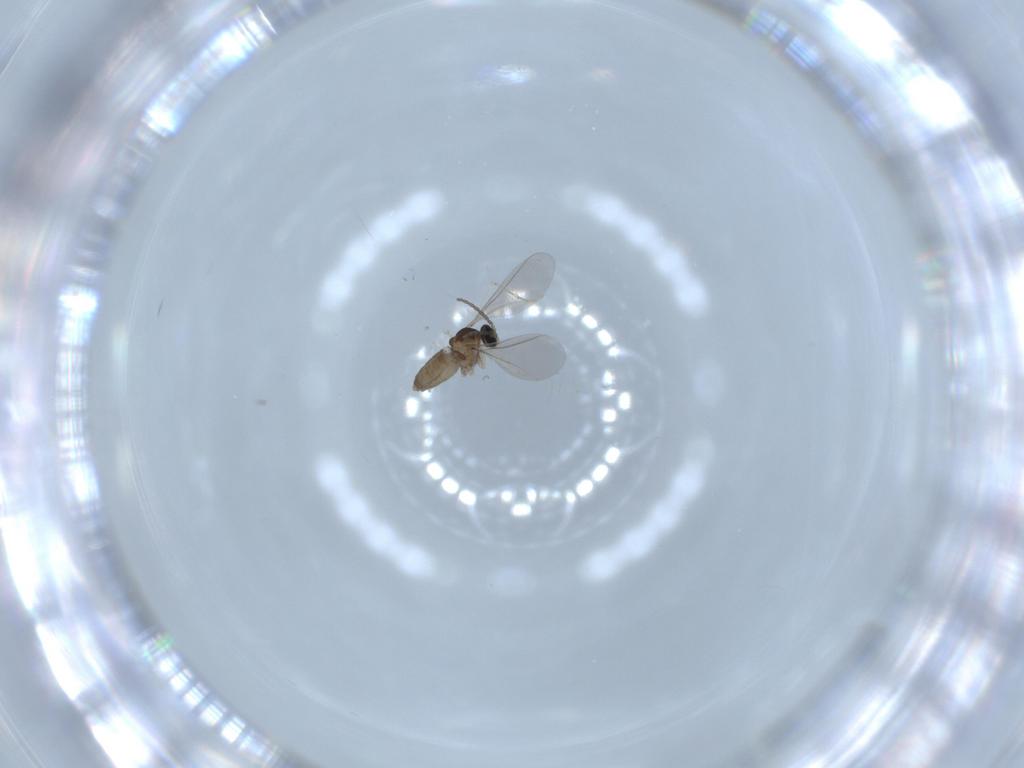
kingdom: Animalia
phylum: Arthropoda
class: Insecta
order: Diptera
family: Cecidomyiidae
